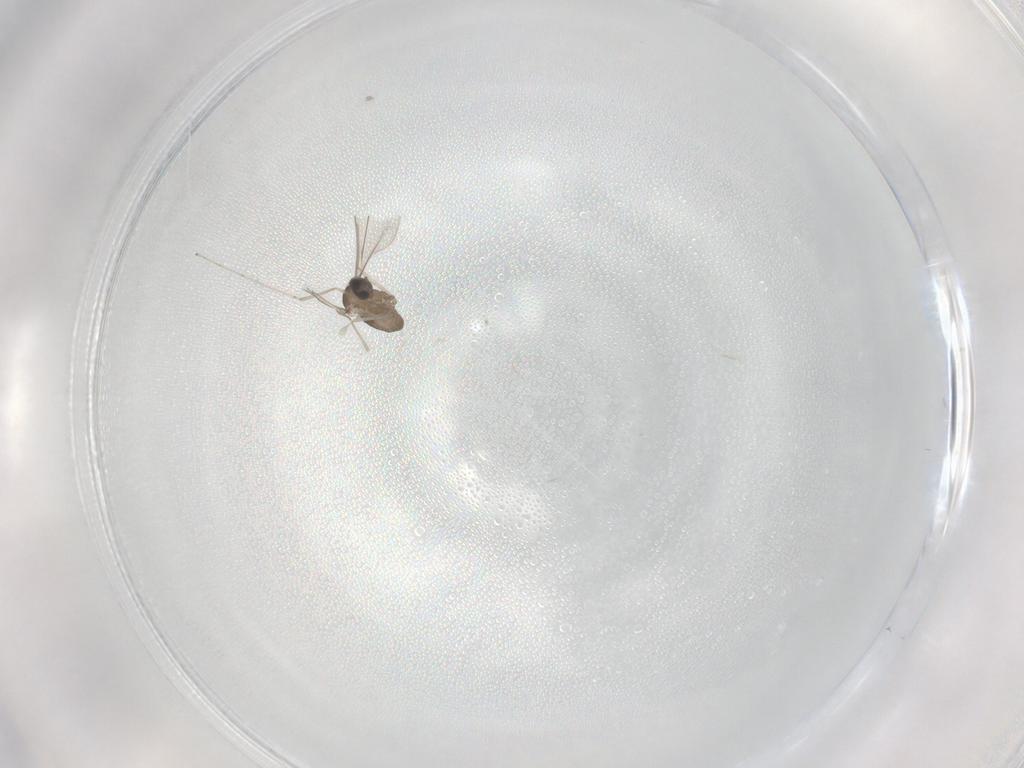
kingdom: Animalia
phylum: Arthropoda
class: Insecta
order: Diptera
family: Cecidomyiidae
